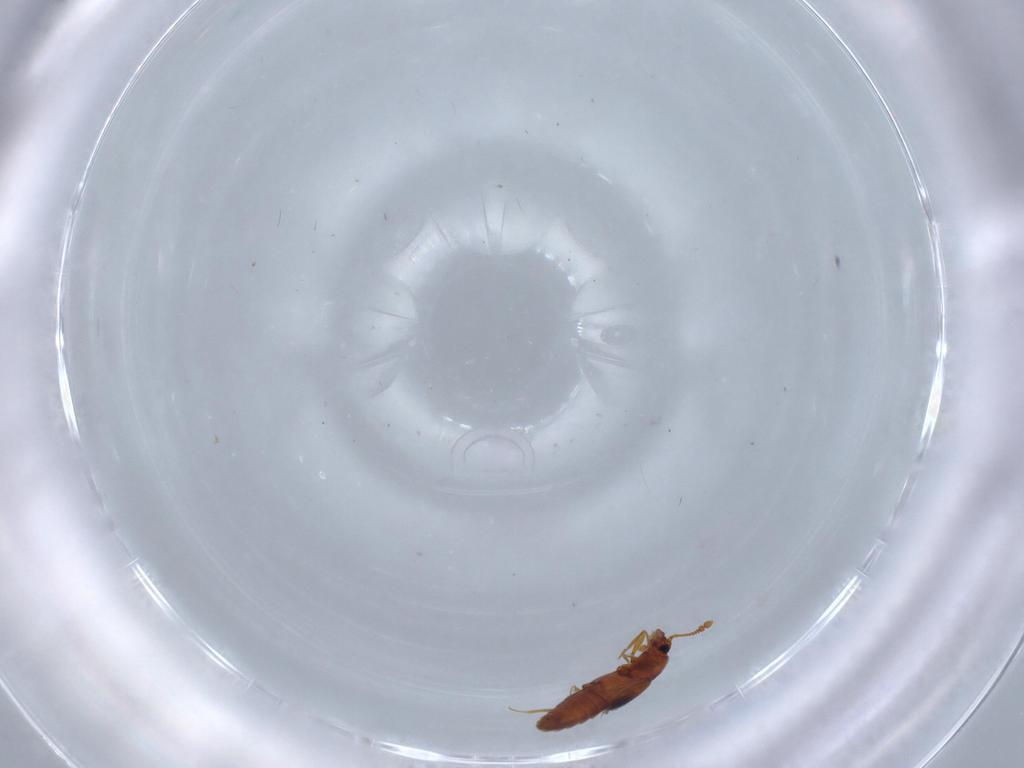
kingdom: Animalia
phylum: Arthropoda
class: Insecta
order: Coleoptera
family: Staphylinidae
